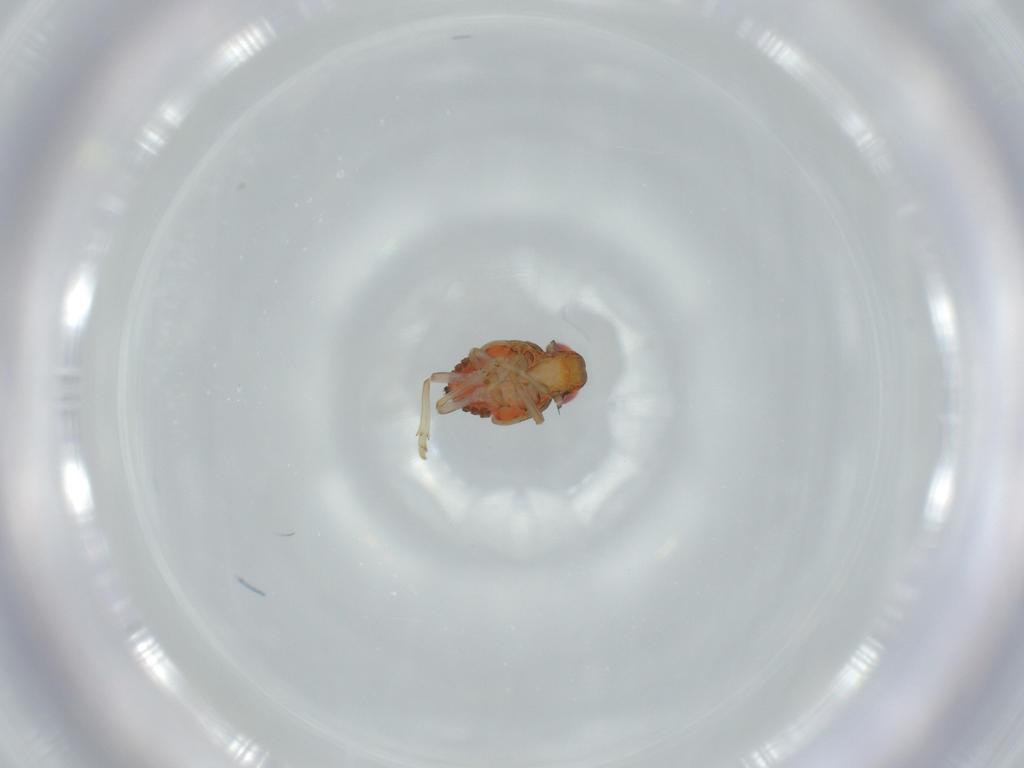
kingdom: Animalia
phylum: Arthropoda
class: Insecta
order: Hemiptera
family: Issidae
